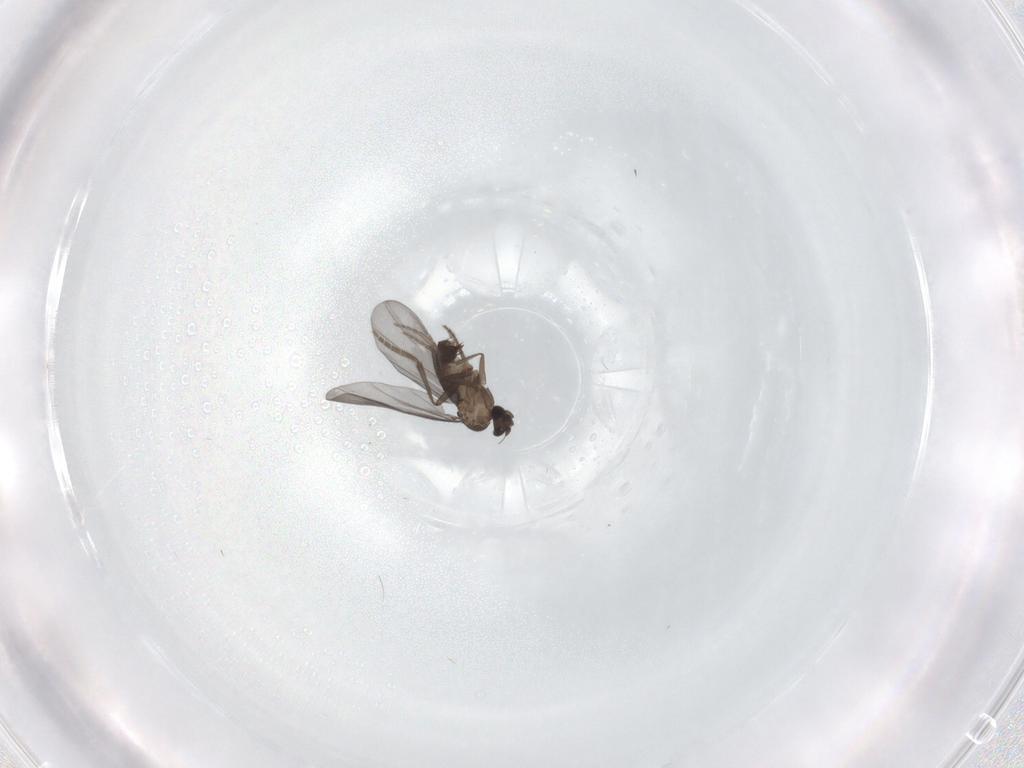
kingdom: Animalia
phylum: Arthropoda
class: Insecta
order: Diptera
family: Phoridae
